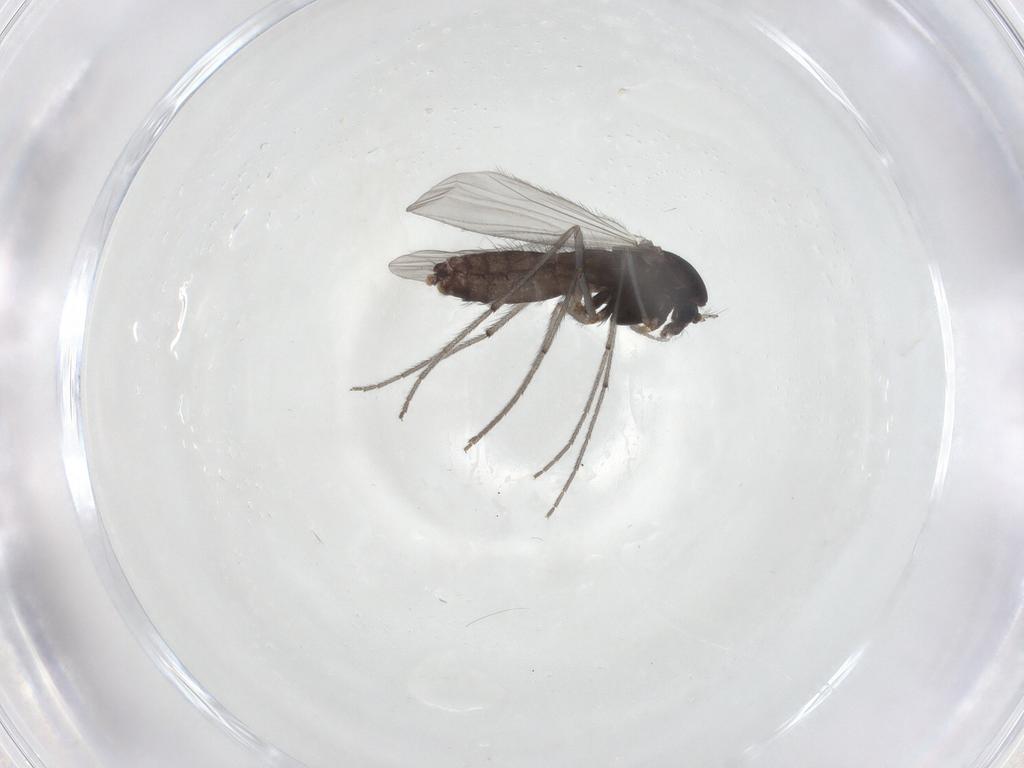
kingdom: Animalia
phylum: Arthropoda
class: Insecta
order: Diptera
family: Chironomidae
